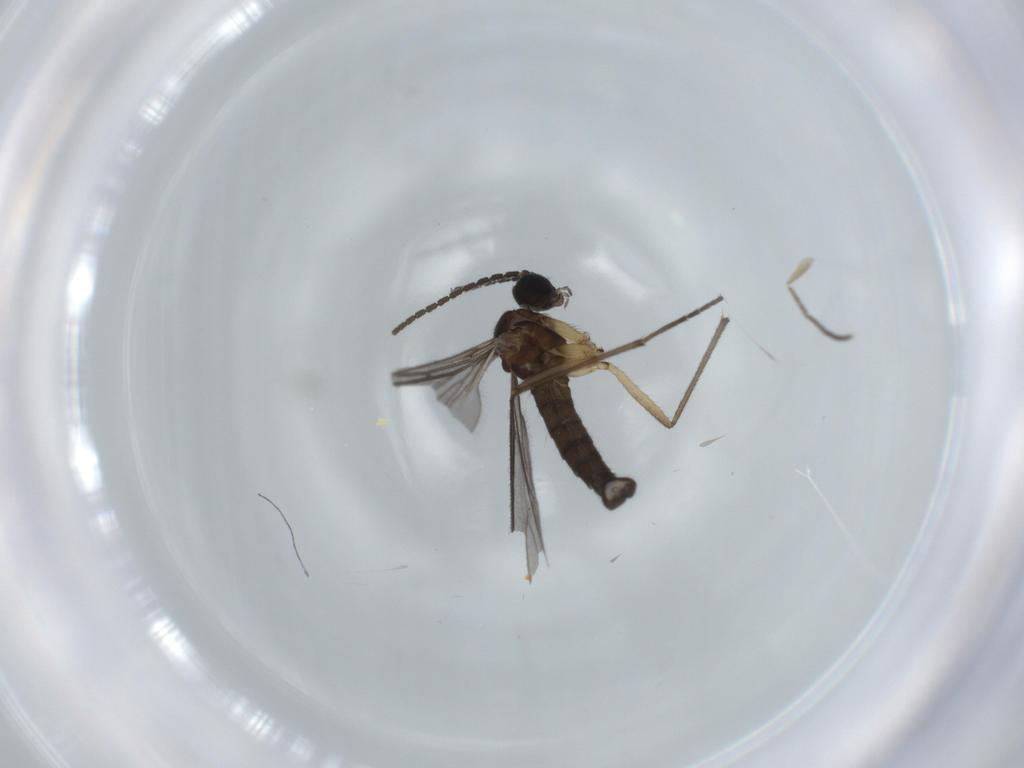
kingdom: Animalia
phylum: Arthropoda
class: Insecta
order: Diptera
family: Sciaridae
